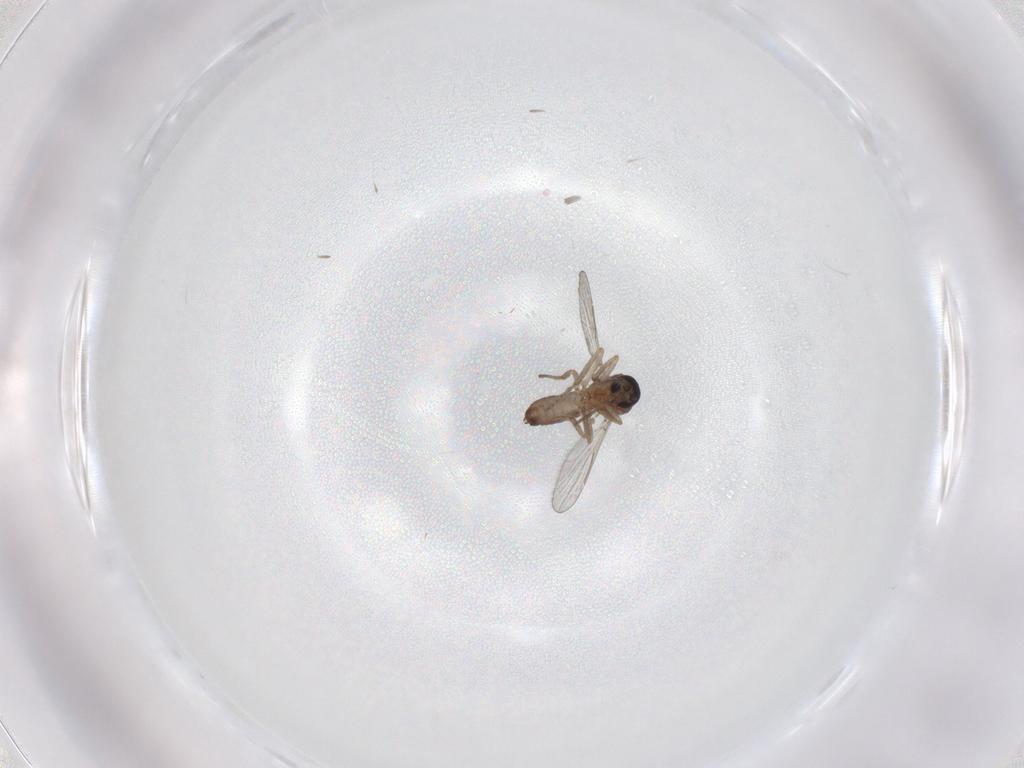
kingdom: Animalia
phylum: Arthropoda
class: Insecta
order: Diptera
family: Ceratopogonidae
